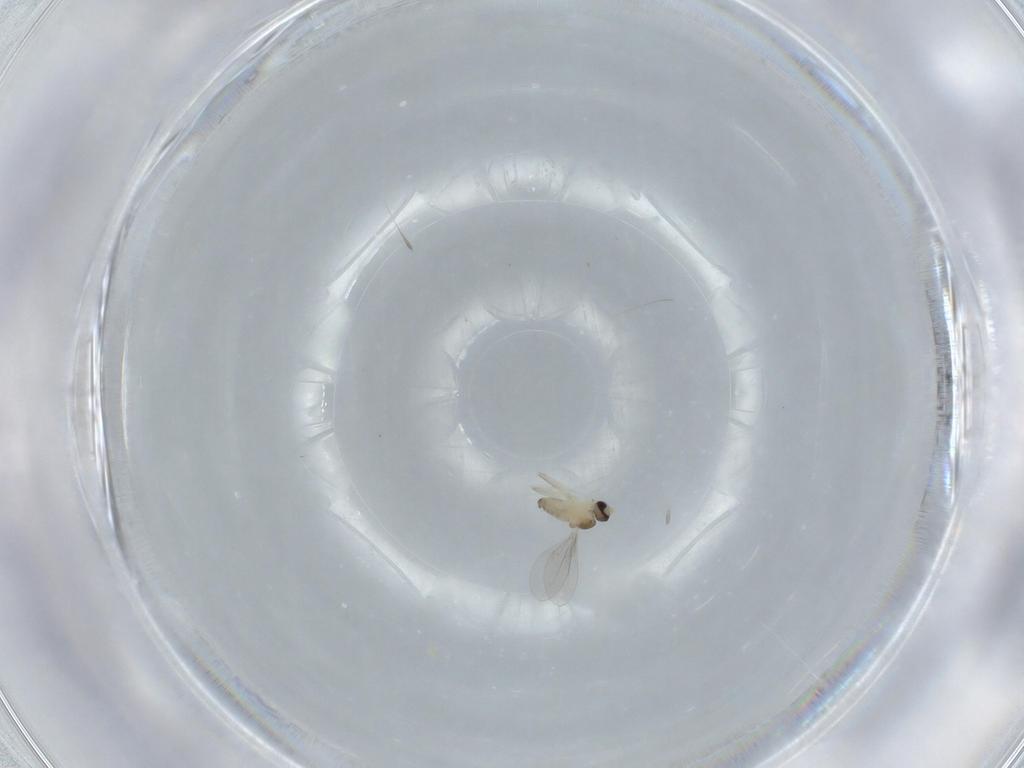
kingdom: Animalia
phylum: Arthropoda
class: Insecta
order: Diptera
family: Cecidomyiidae
